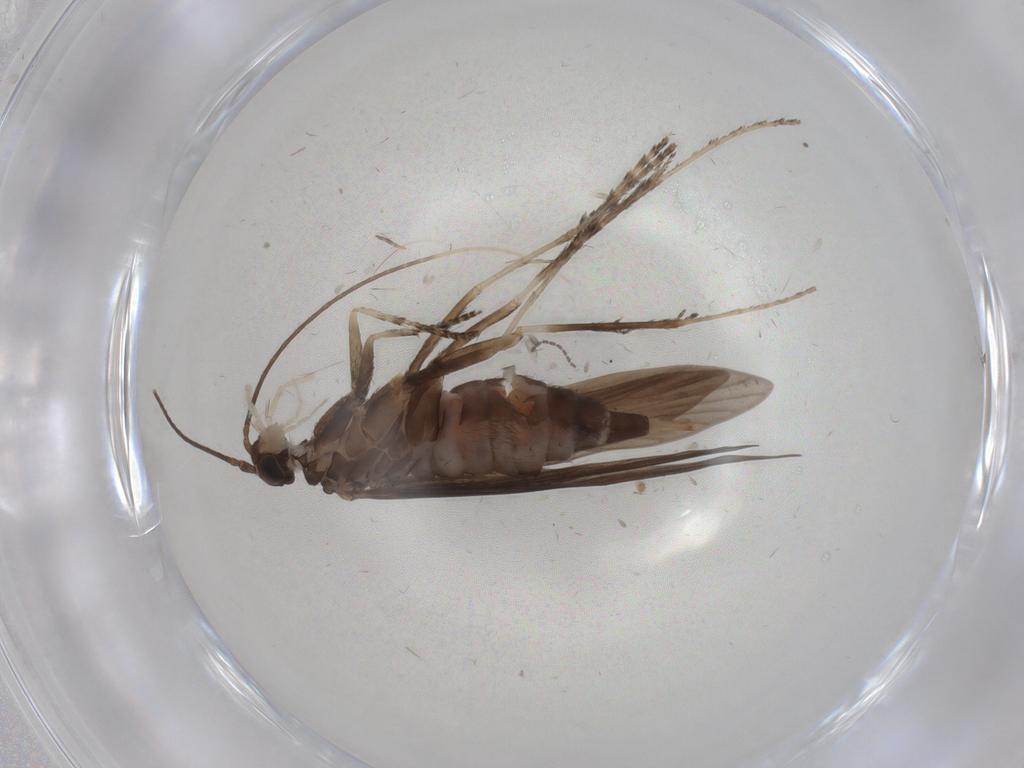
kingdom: Animalia
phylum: Arthropoda
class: Insecta
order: Trichoptera
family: Xiphocentronidae
